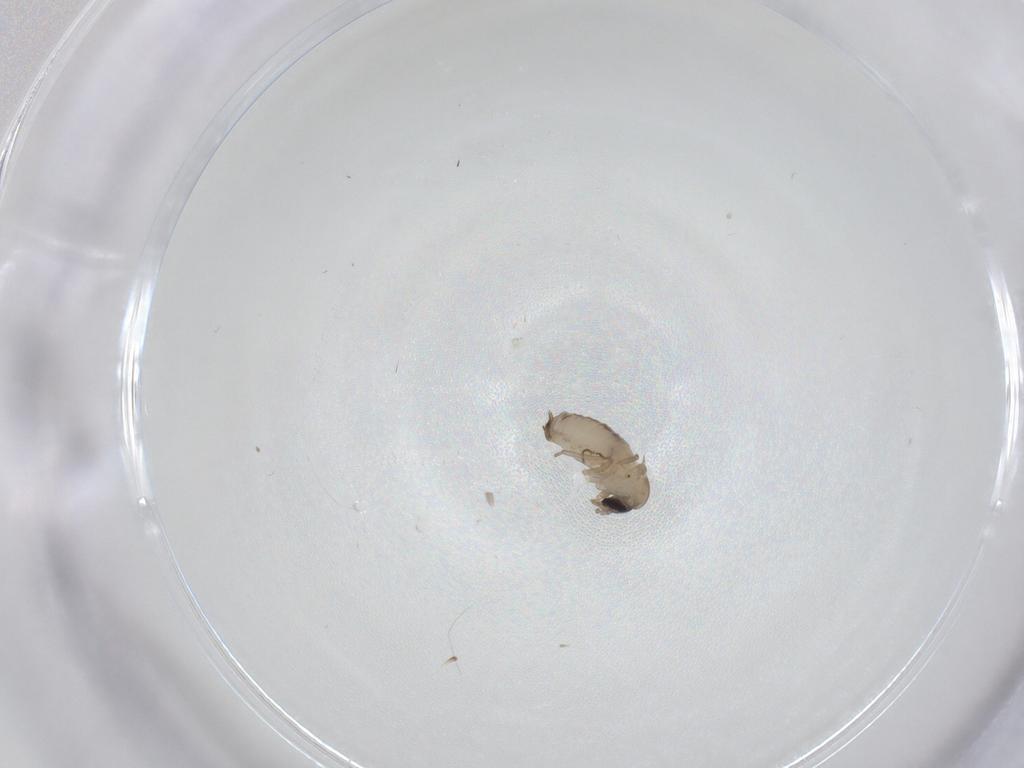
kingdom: Animalia
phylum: Arthropoda
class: Insecta
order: Diptera
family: Psychodidae
